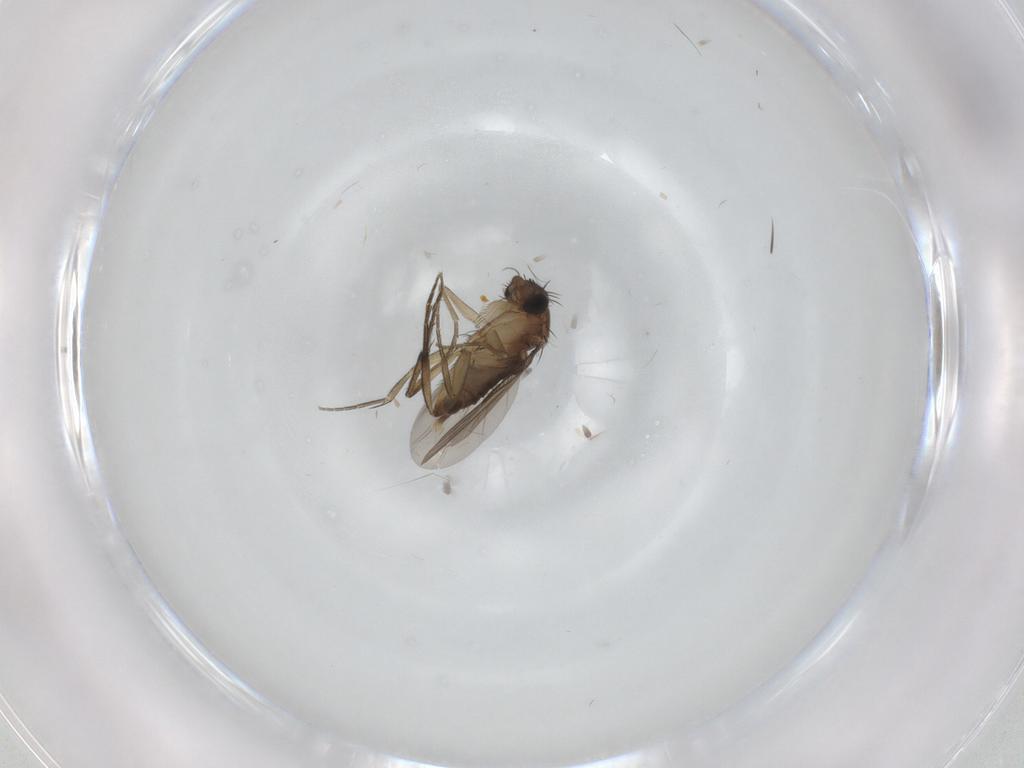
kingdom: Animalia
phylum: Arthropoda
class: Insecta
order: Diptera
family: Phoridae
